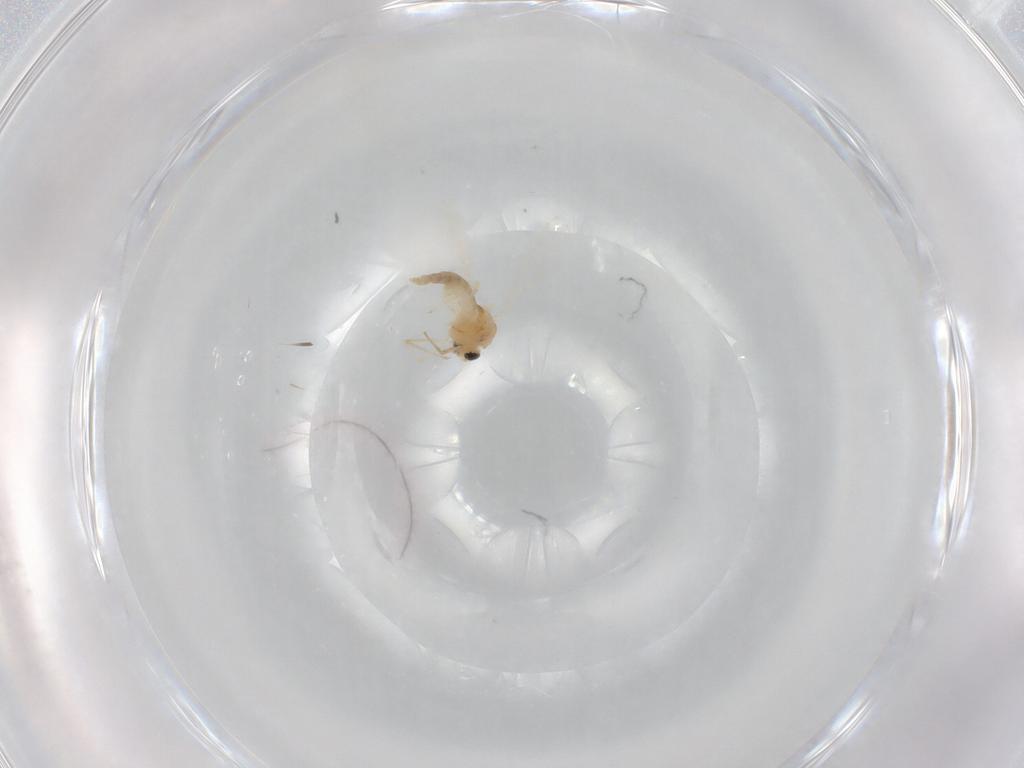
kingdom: Animalia
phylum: Arthropoda
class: Insecta
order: Diptera
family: Chironomidae
